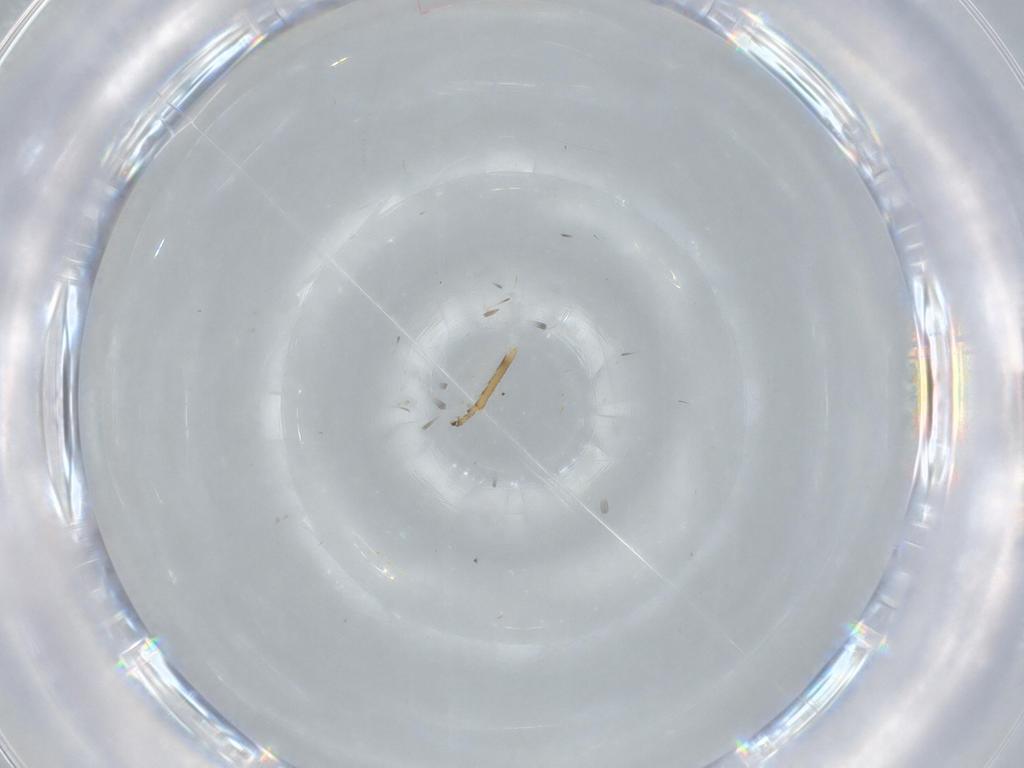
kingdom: Animalia
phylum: Arthropoda
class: Insecta
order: Hemiptera
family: Cicadellidae
